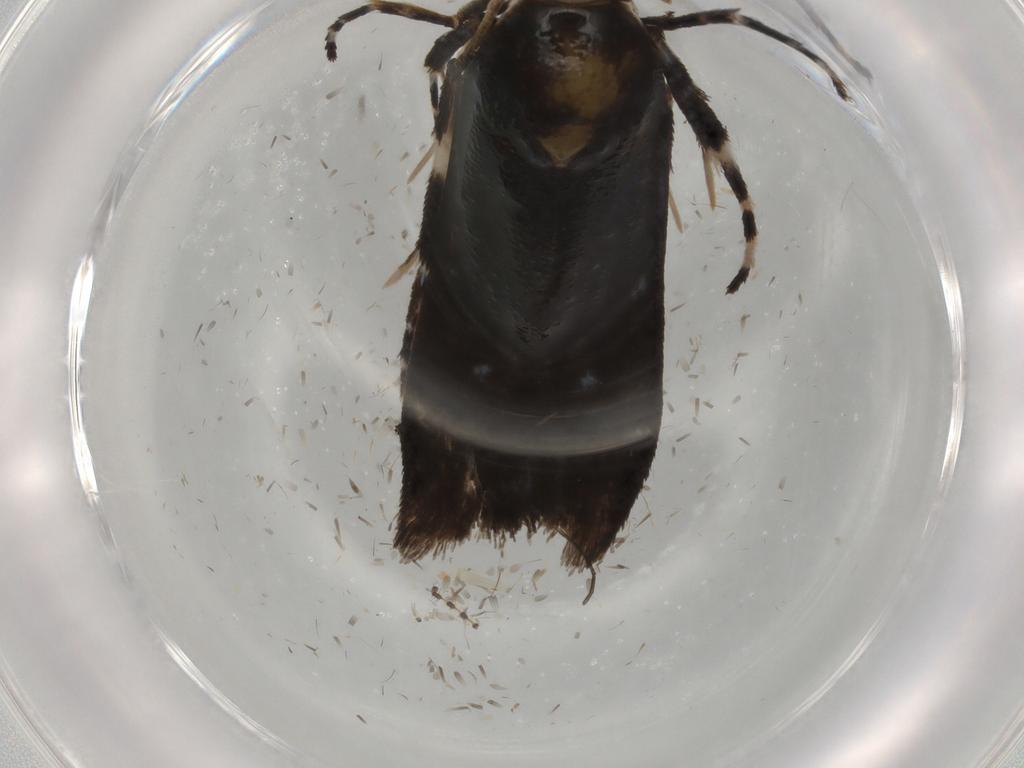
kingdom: Animalia
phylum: Arthropoda
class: Insecta
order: Lepidoptera
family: Gelechiidae
